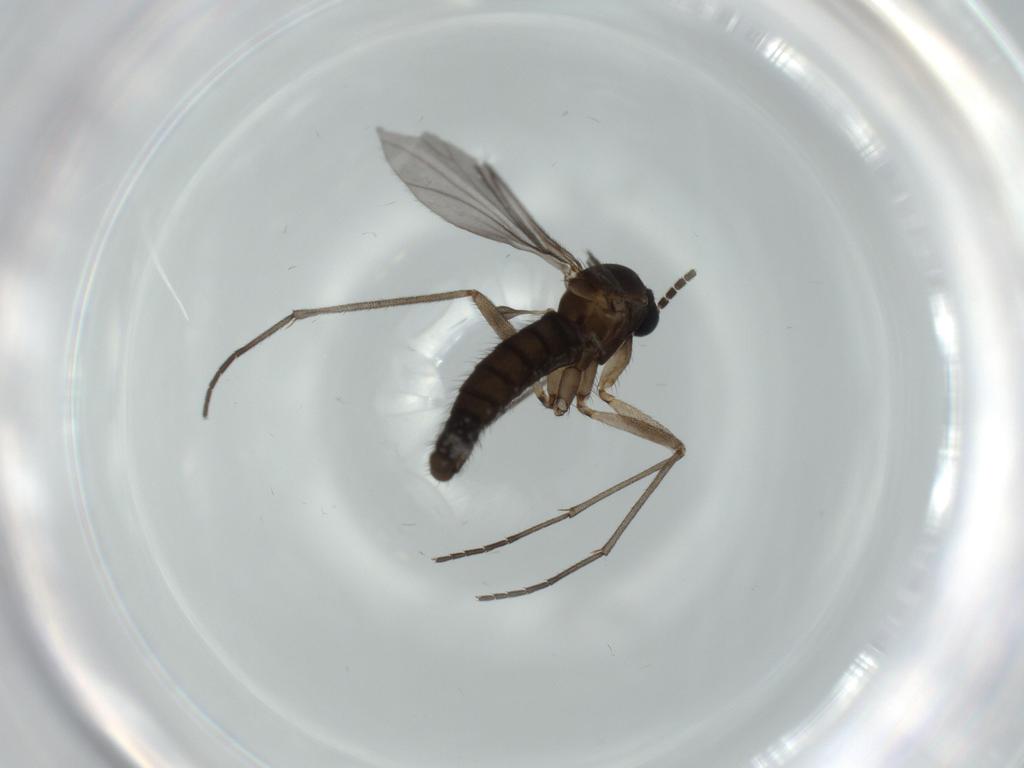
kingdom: Animalia
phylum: Arthropoda
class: Insecta
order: Diptera
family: Sciaridae
